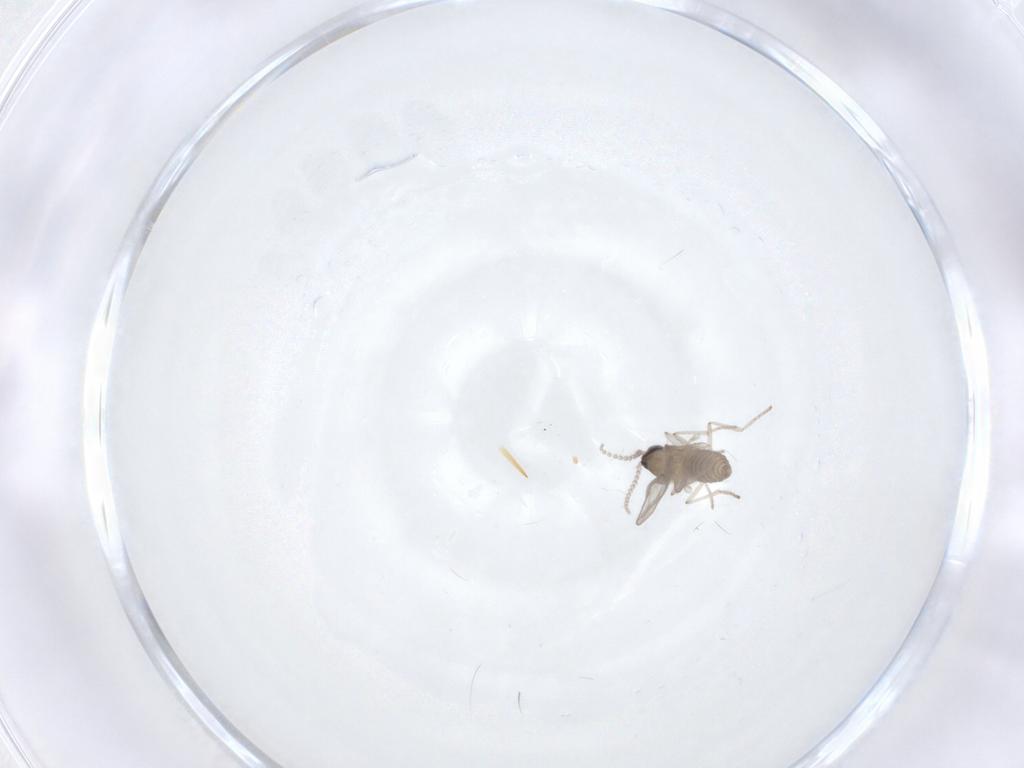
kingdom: Animalia
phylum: Arthropoda
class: Insecta
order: Diptera
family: Cecidomyiidae
